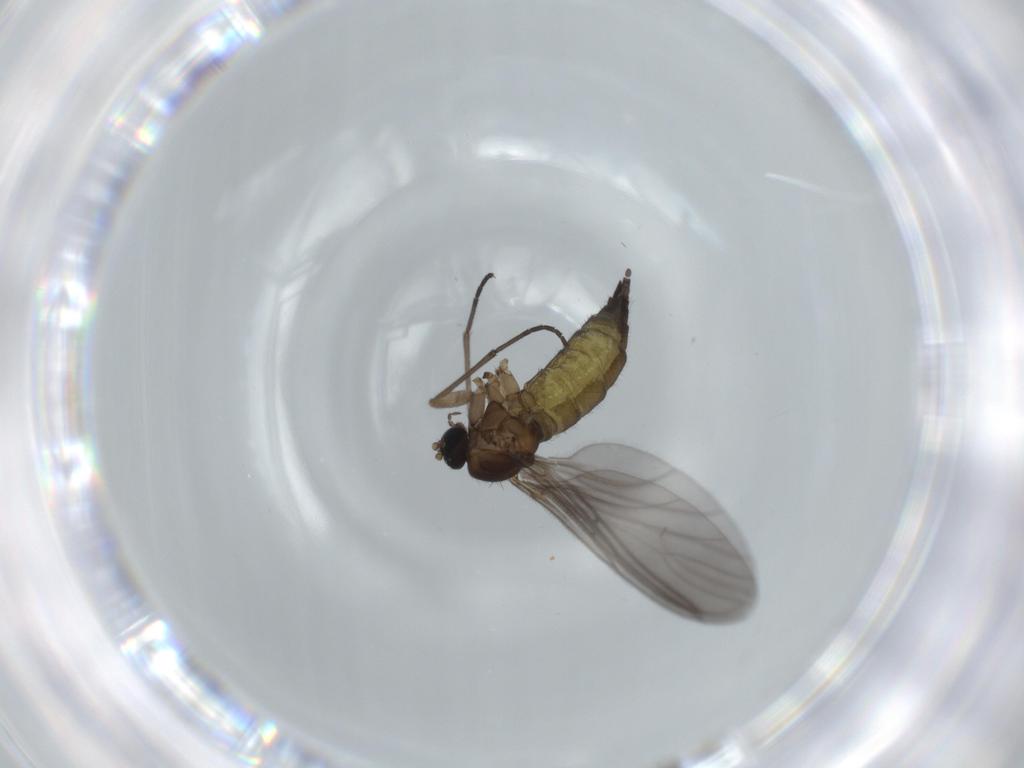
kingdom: Animalia
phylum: Arthropoda
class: Insecta
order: Diptera
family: Sciaridae
